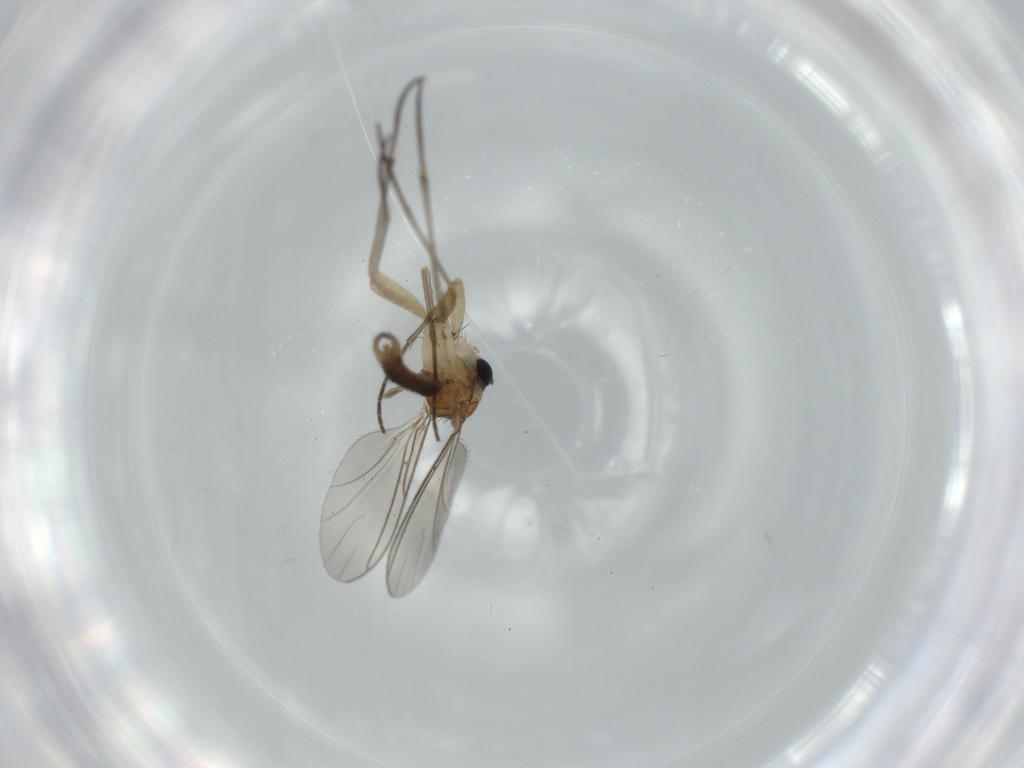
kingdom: Animalia
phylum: Arthropoda
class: Insecta
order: Diptera
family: Sciaridae
